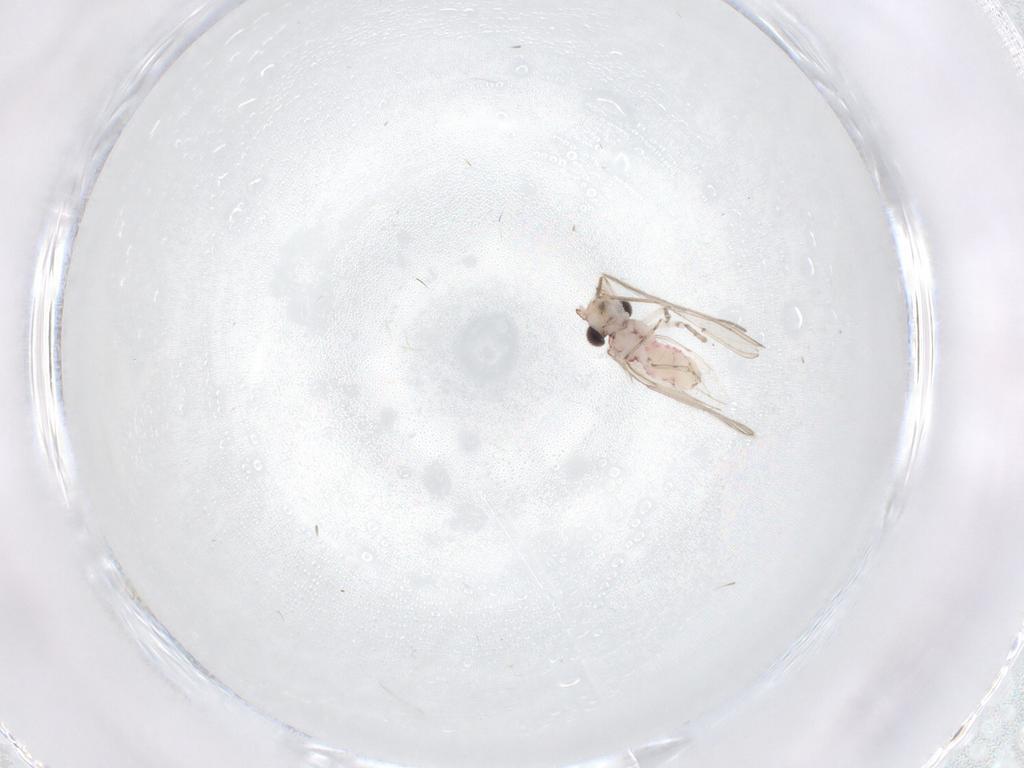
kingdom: Animalia
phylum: Arthropoda
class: Insecta
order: Psocodea
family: Caeciliusidae
